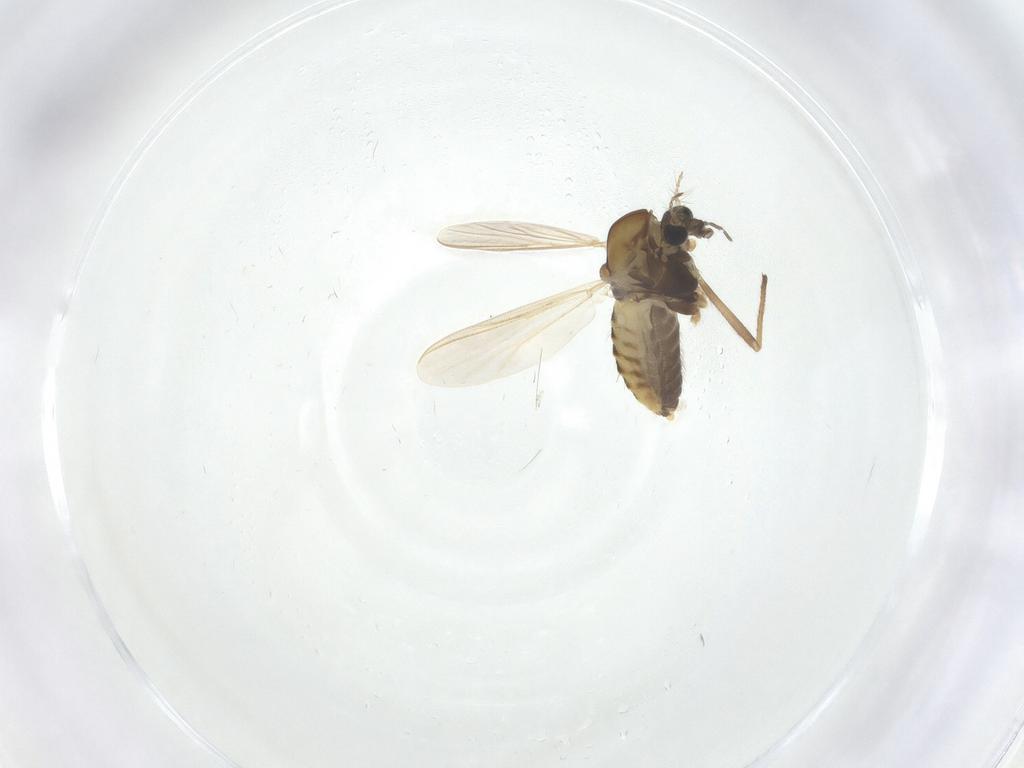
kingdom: Animalia
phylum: Arthropoda
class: Insecta
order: Diptera
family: Chironomidae
